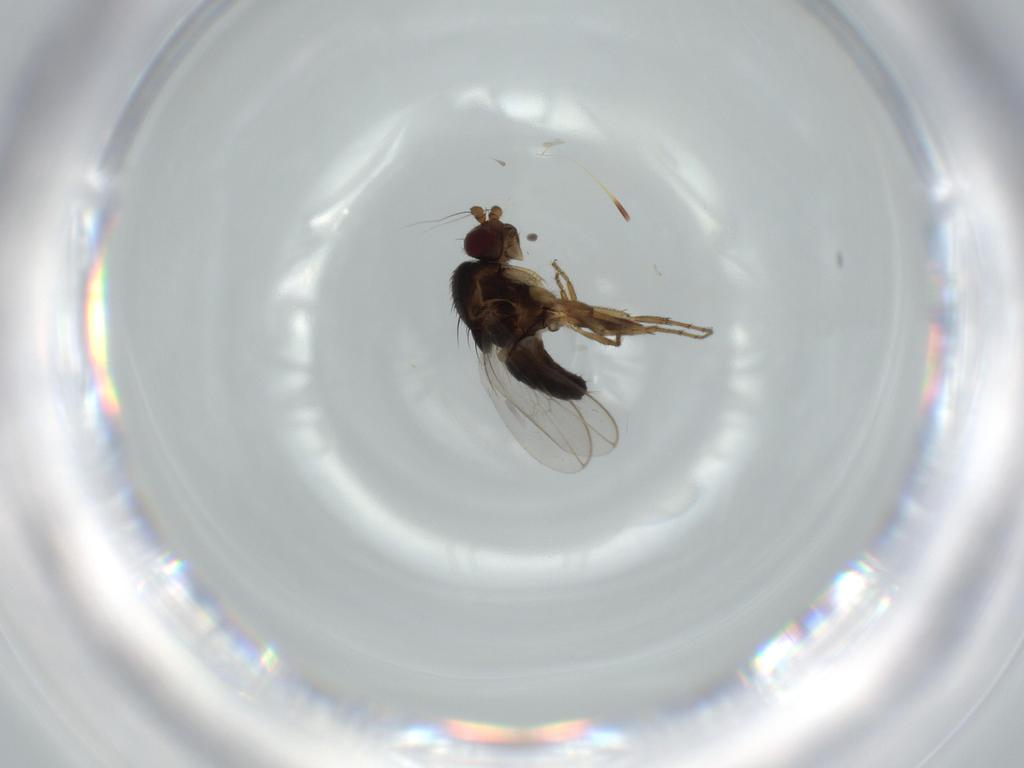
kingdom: Animalia
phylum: Arthropoda
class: Insecta
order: Diptera
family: Sphaeroceridae
